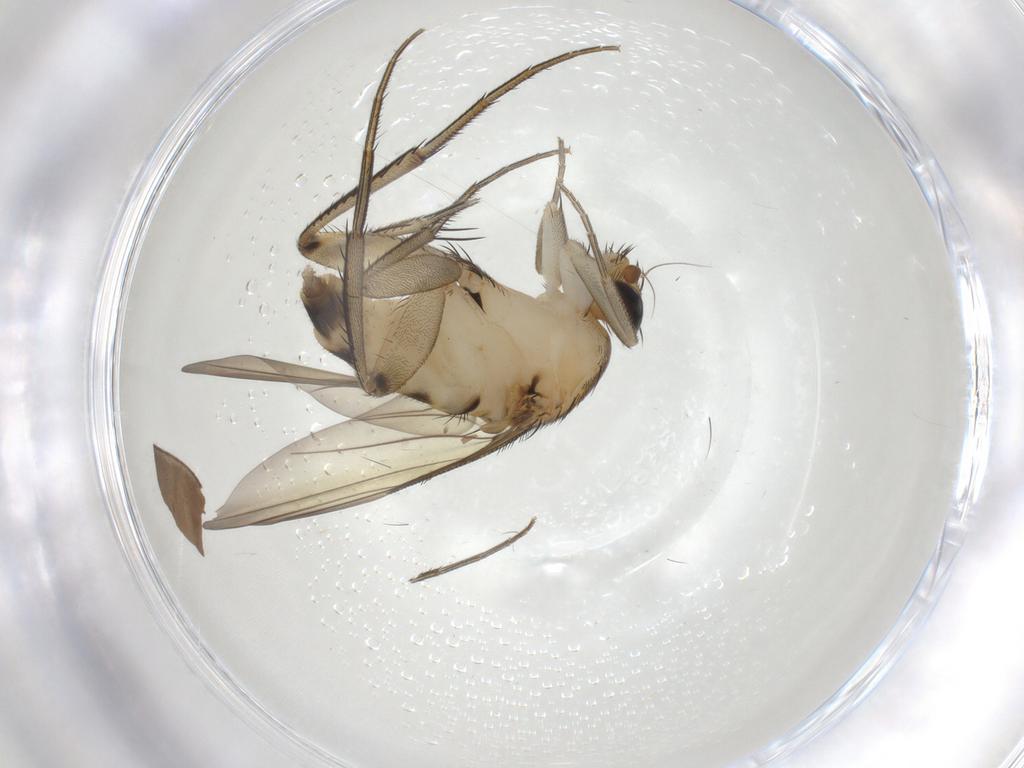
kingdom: Animalia
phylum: Arthropoda
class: Insecta
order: Diptera
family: Phoridae
